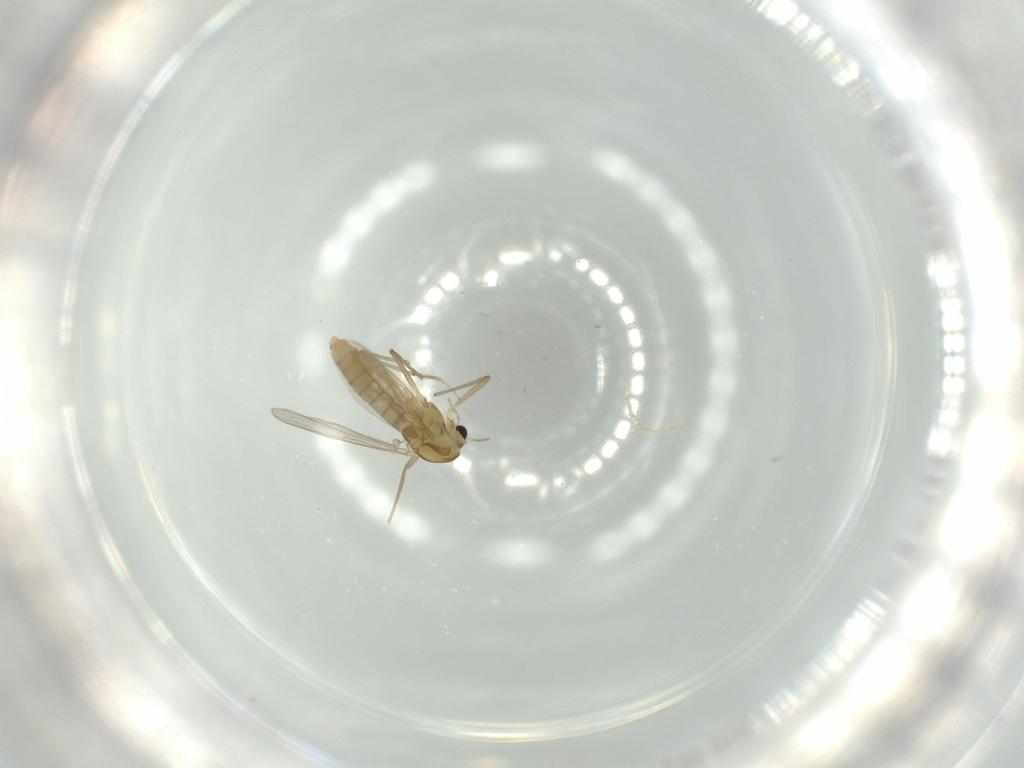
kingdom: Animalia
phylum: Arthropoda
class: Insecta
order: Diptera
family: Chironomidae
